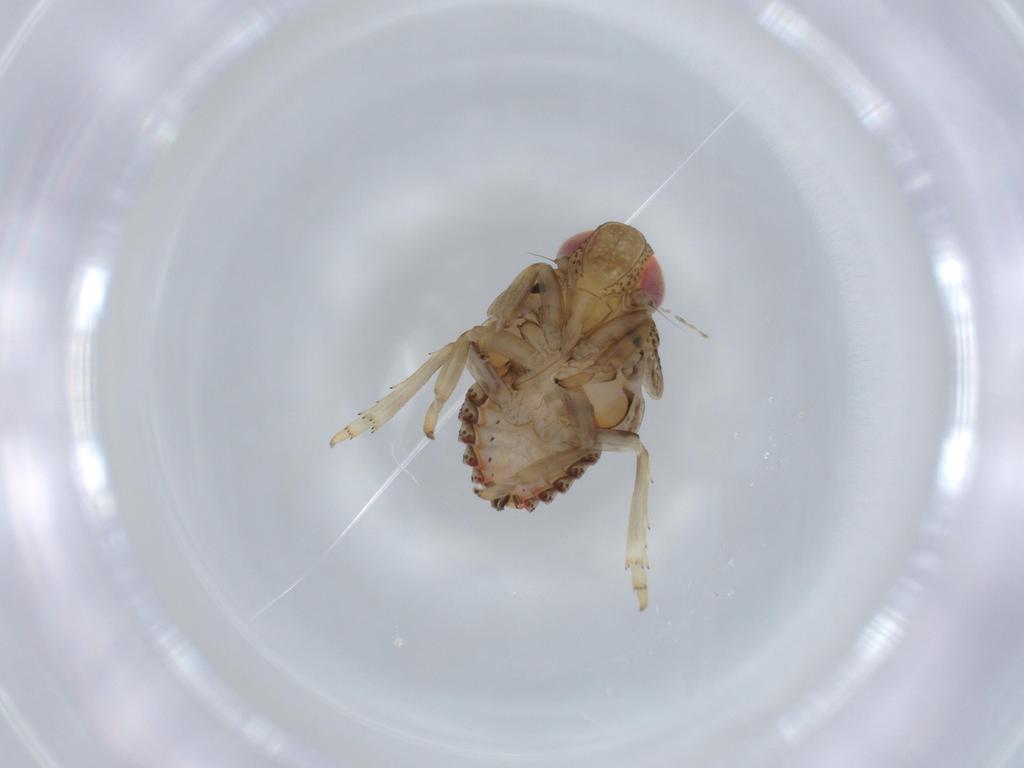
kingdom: Animalia
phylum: Arthropoda
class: Insecta
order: Hemiptera
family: Issidae
